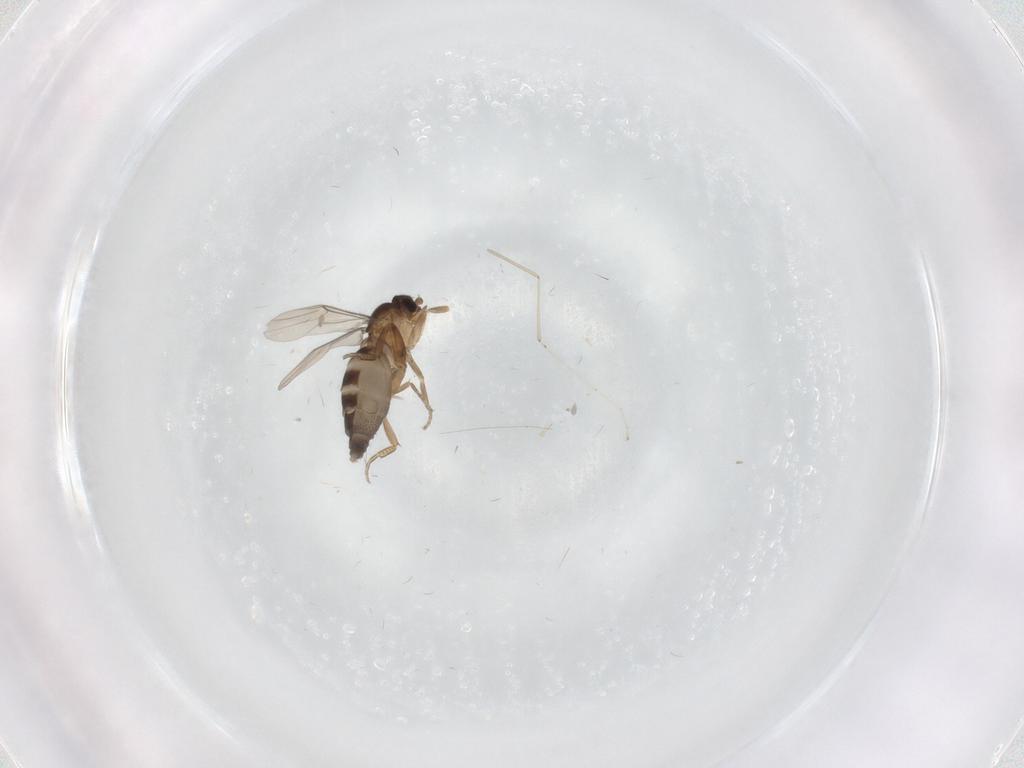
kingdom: Animalia
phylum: Arthropoda
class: Insecta
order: Diptera
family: Phoridae
